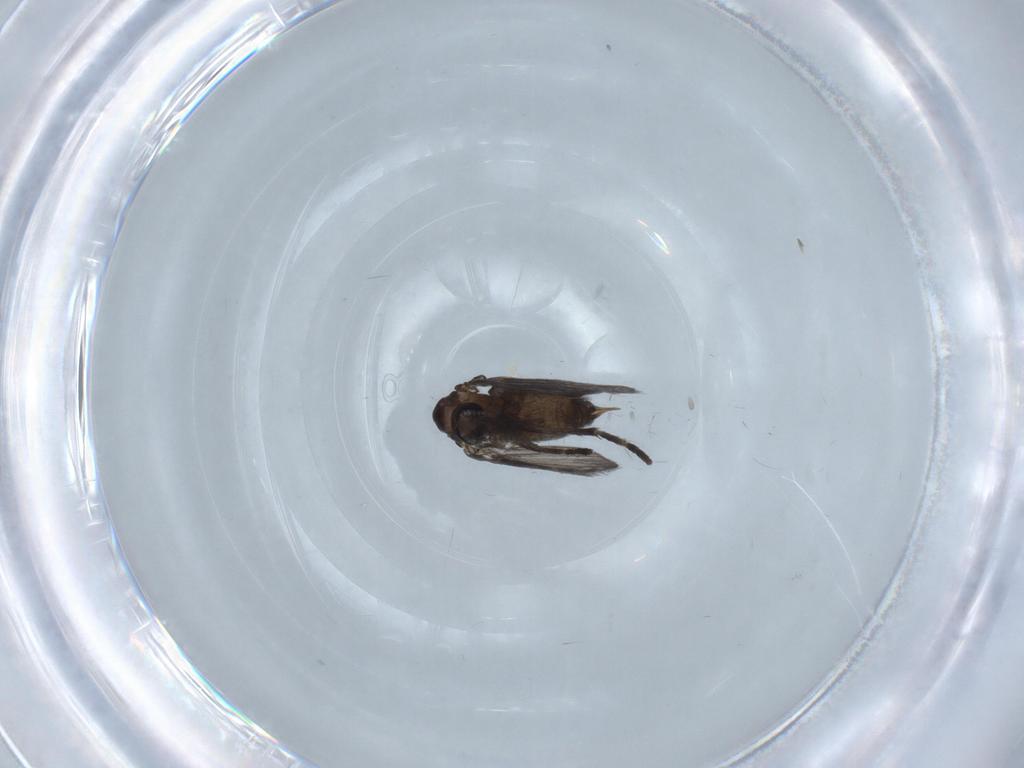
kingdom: Animalia
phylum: Arthropoda
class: Insecta
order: Diptera
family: Psychodidae
